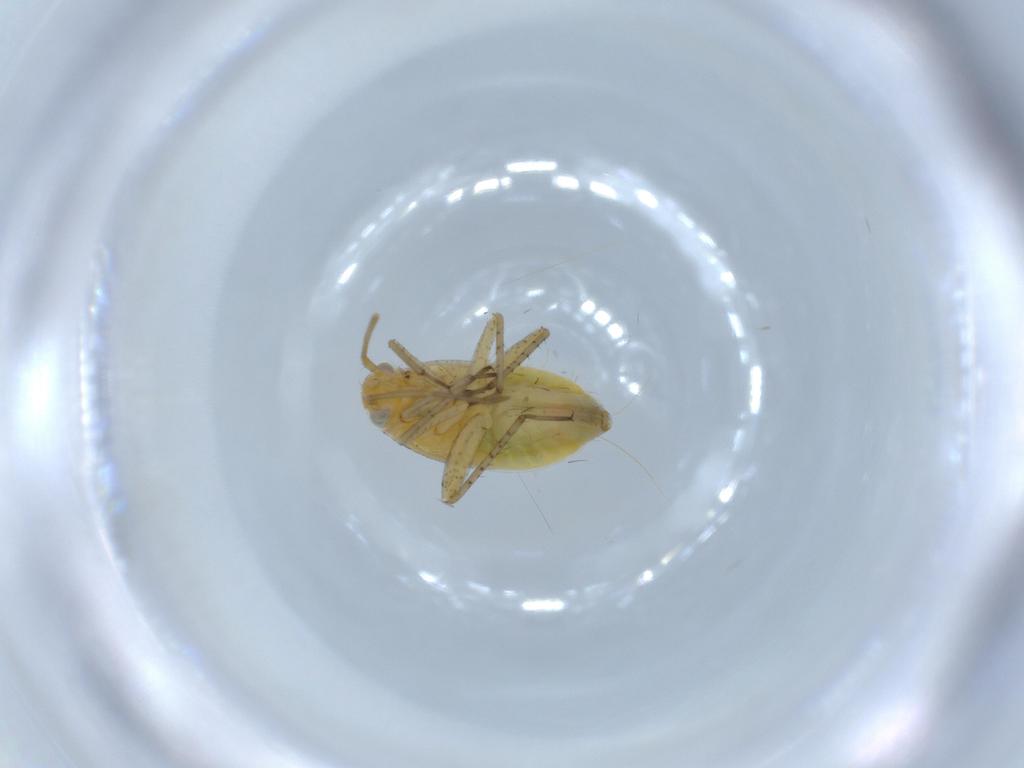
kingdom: Animalia
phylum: Arthropoda
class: Insecta
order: Hemiptera
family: Miridae
